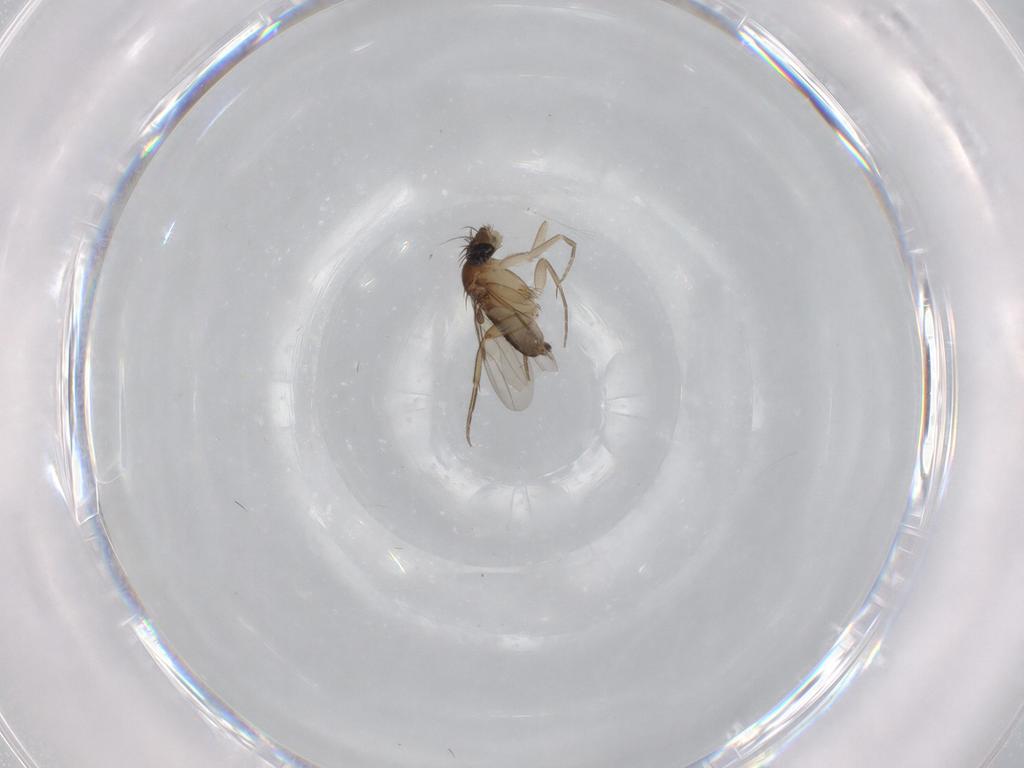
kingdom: Animalia
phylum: Arthropoda
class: Insecta
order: Diptera
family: Phoridae
